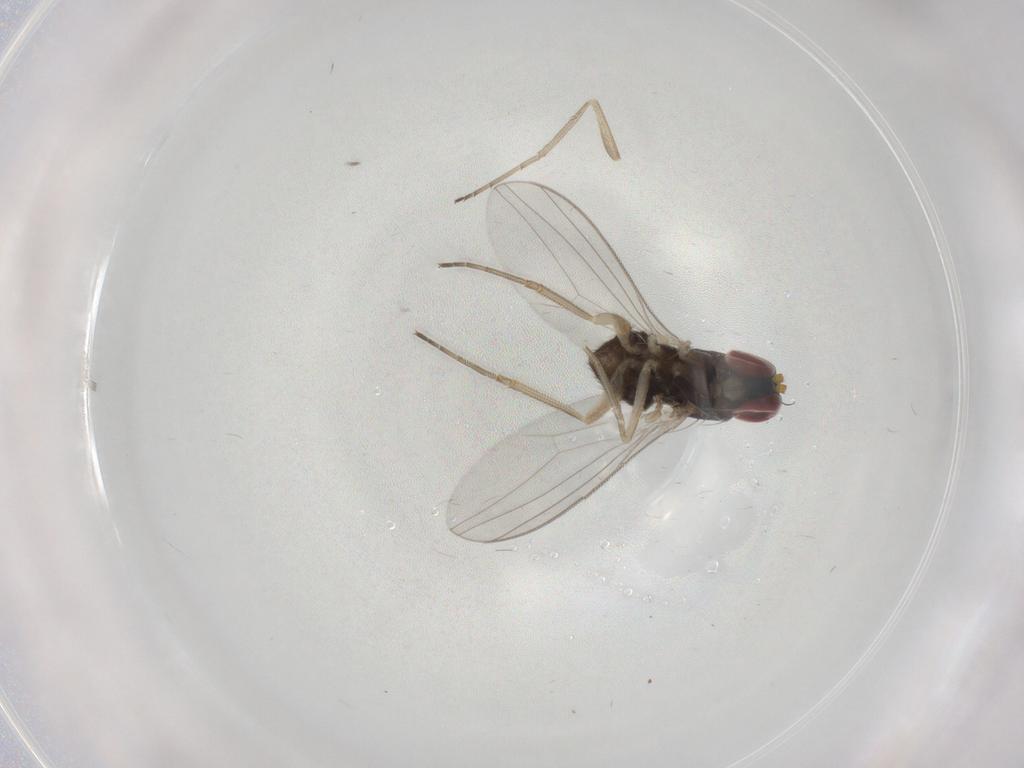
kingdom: Animalia
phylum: Arthropoda
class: Insecta
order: Diptera
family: Dolichopodidae
